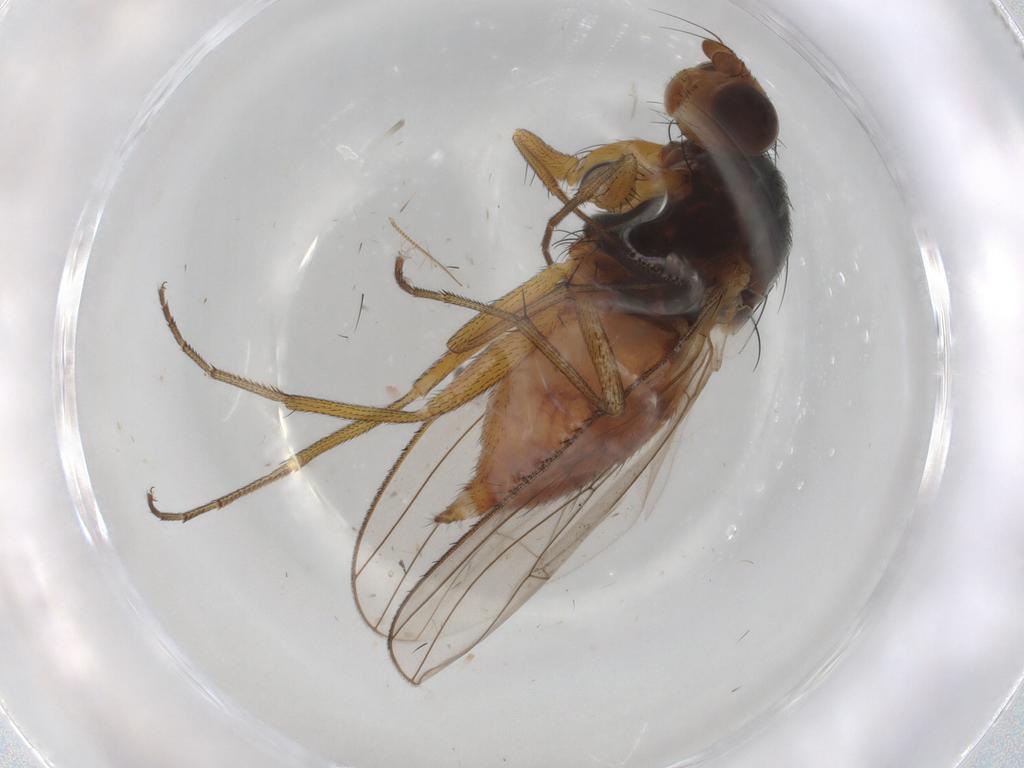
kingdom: Animalia
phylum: Arthropoda
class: Insecta
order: Diptera
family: Heleomyzidae
